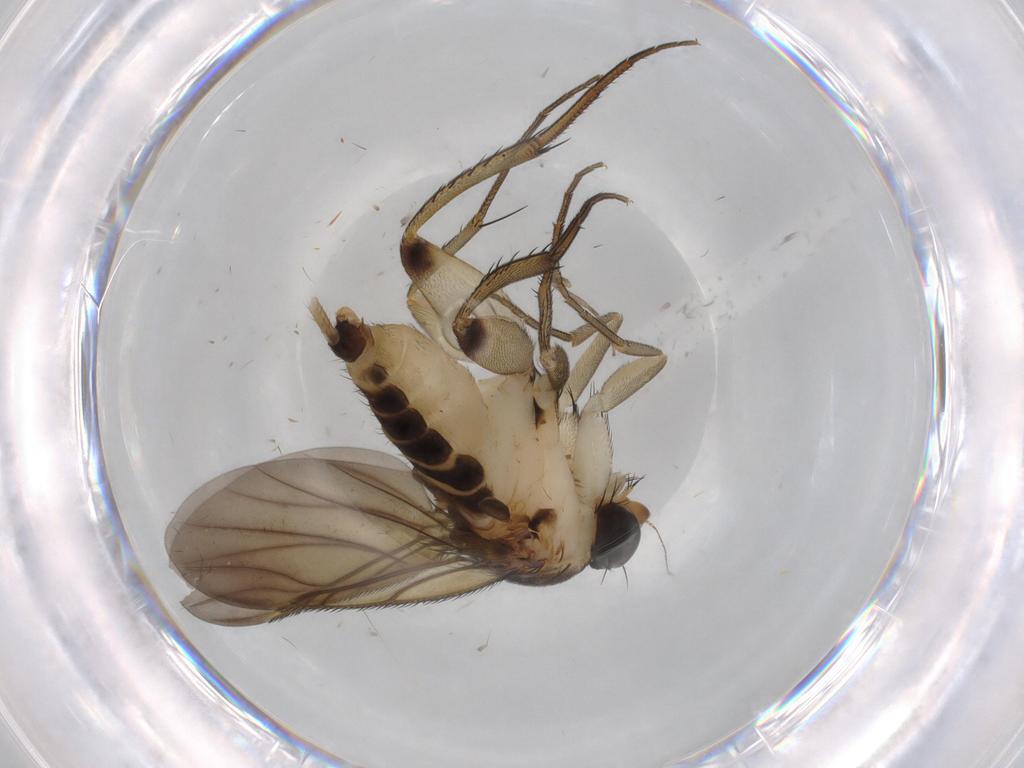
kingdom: Animalia
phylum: Arthropoda
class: Insecta
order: Diptera
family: Phoridae
